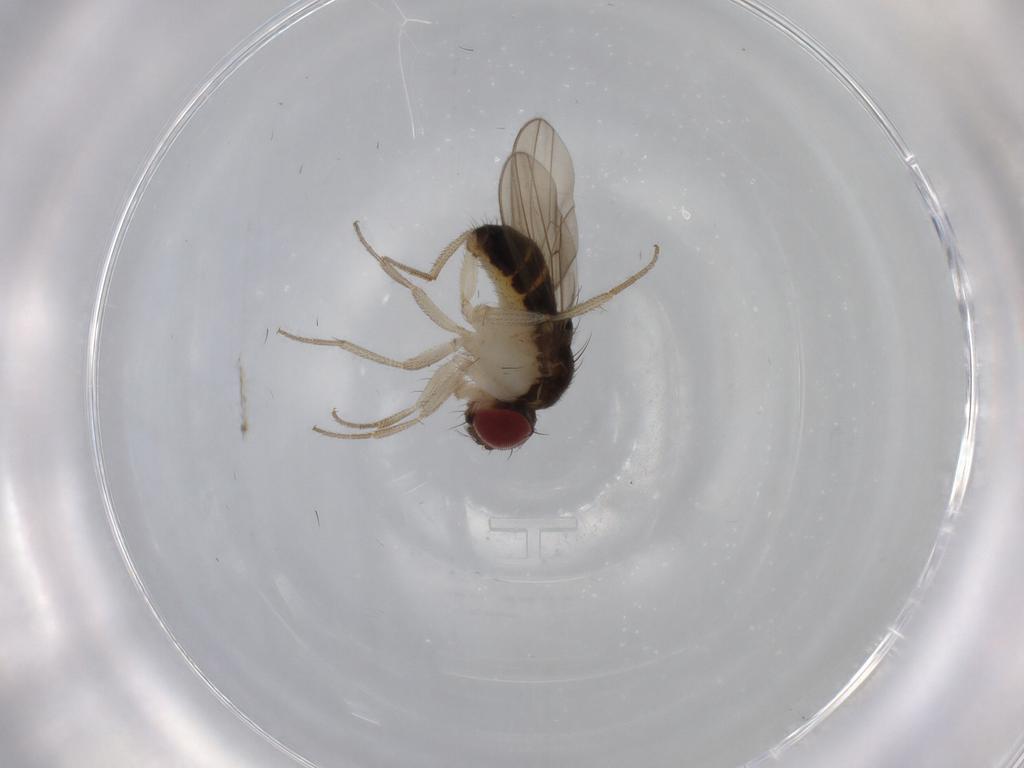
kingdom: Animalia
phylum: Arthropoda
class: Insecta
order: Diptera
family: Drosophilidae
